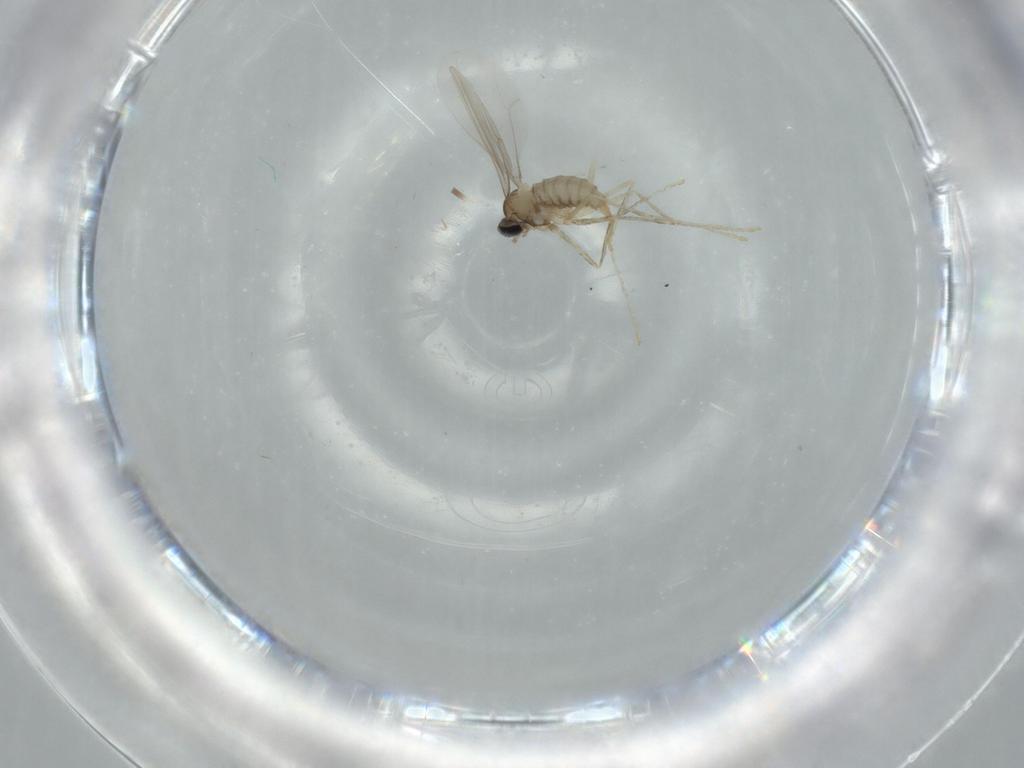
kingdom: Animalia
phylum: Arthropoda
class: Insecta
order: Diptera
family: Cecidomyiidae
